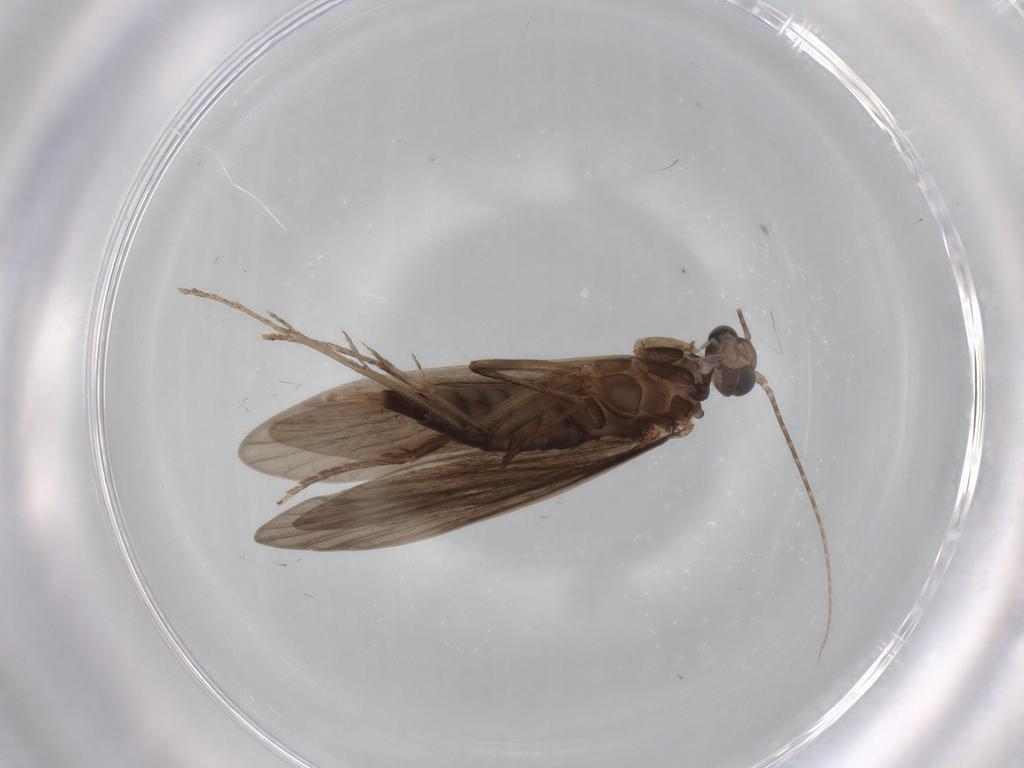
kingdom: Animalia
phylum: Arthropoda
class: Insecta
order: Trichoptera
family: Xiphocentronidae
